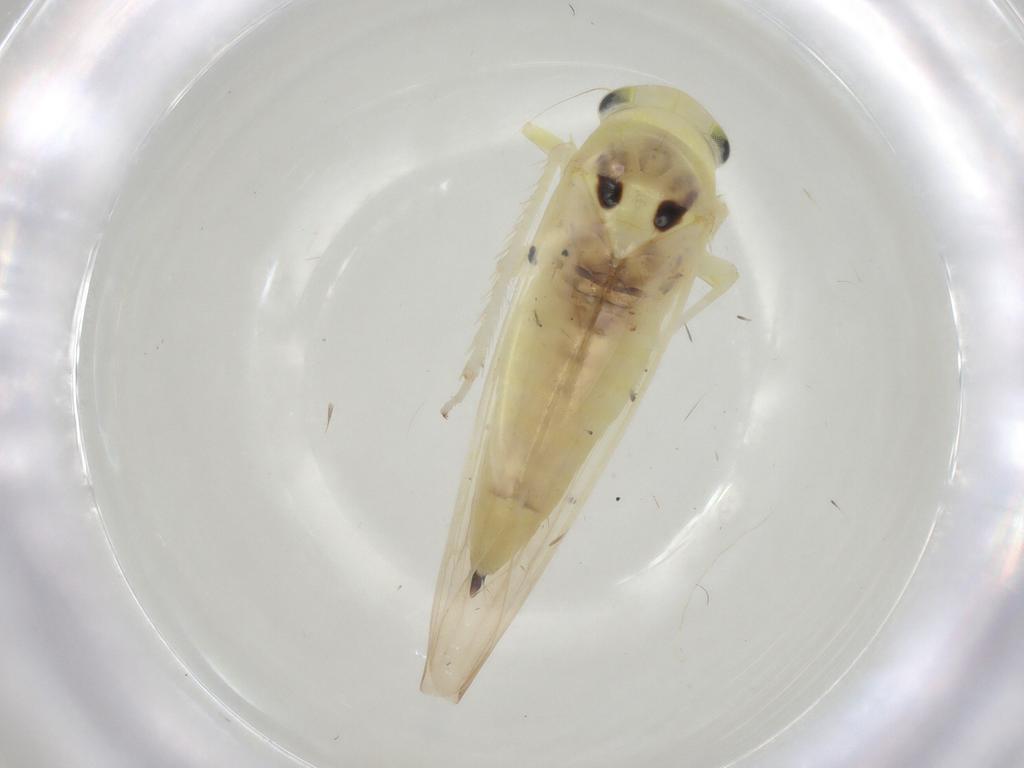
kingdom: Animalia
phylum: Arthropoda
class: Insecta
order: Hemiptera
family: Cicadellidae
